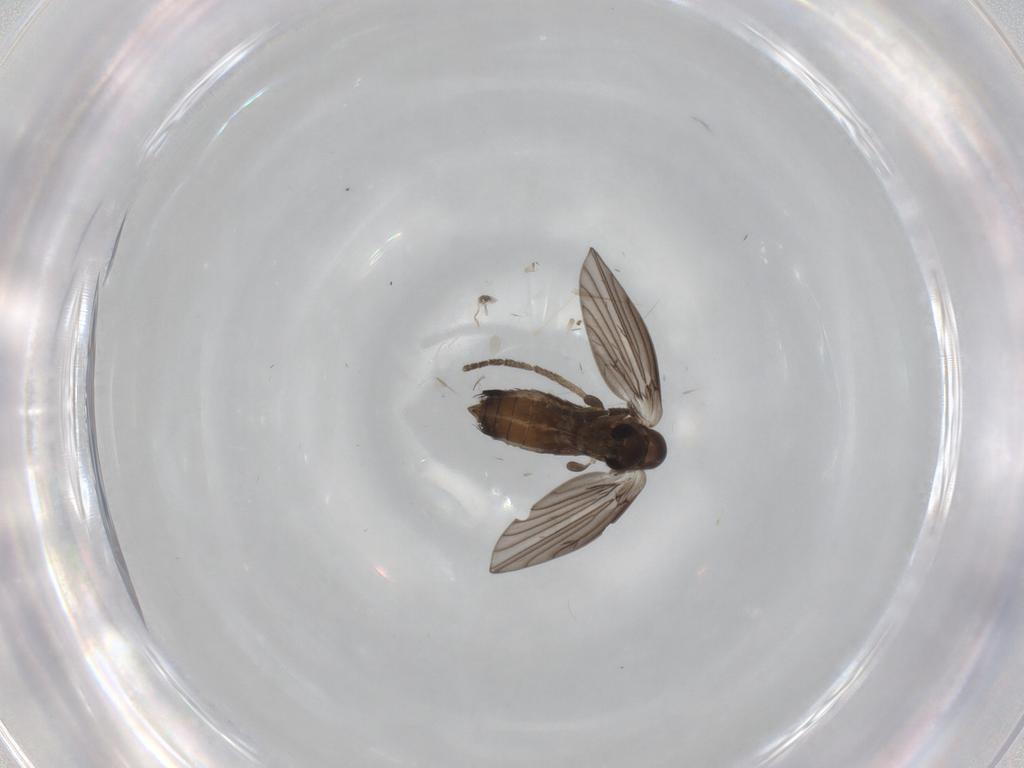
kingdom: Animalia
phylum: Arthropoda
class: Insecta
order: Diptera
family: Cecidomyiidae
